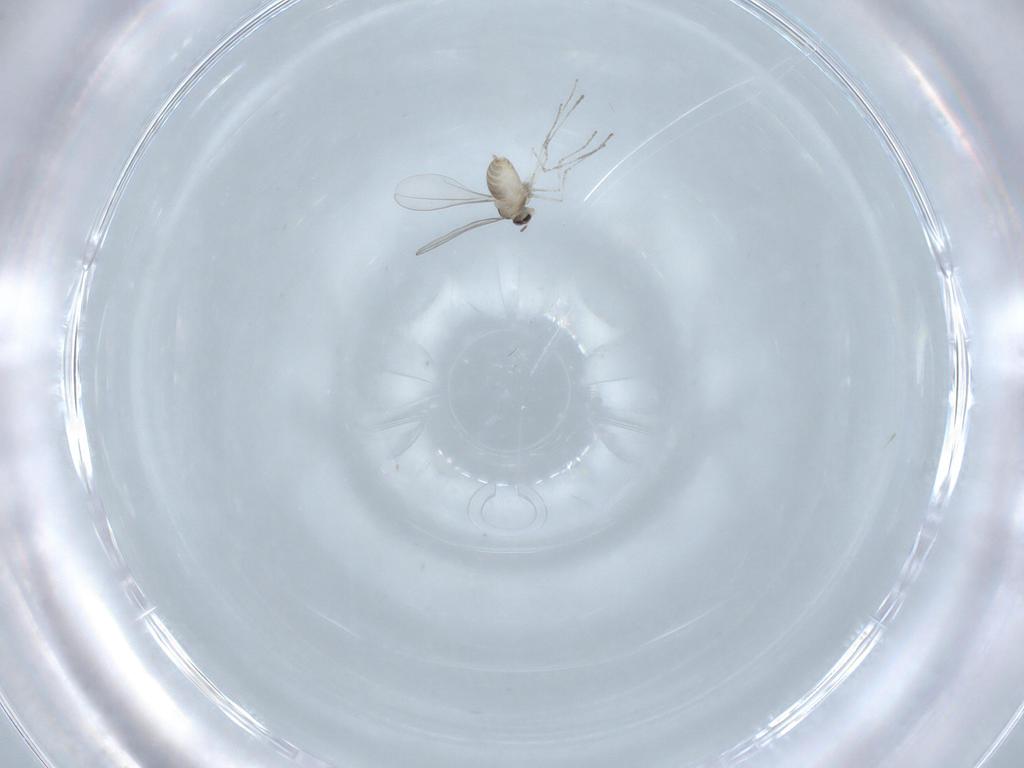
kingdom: Animalia
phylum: Arthropoda
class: Insecta
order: Diptera
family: Cecidomyiidae
